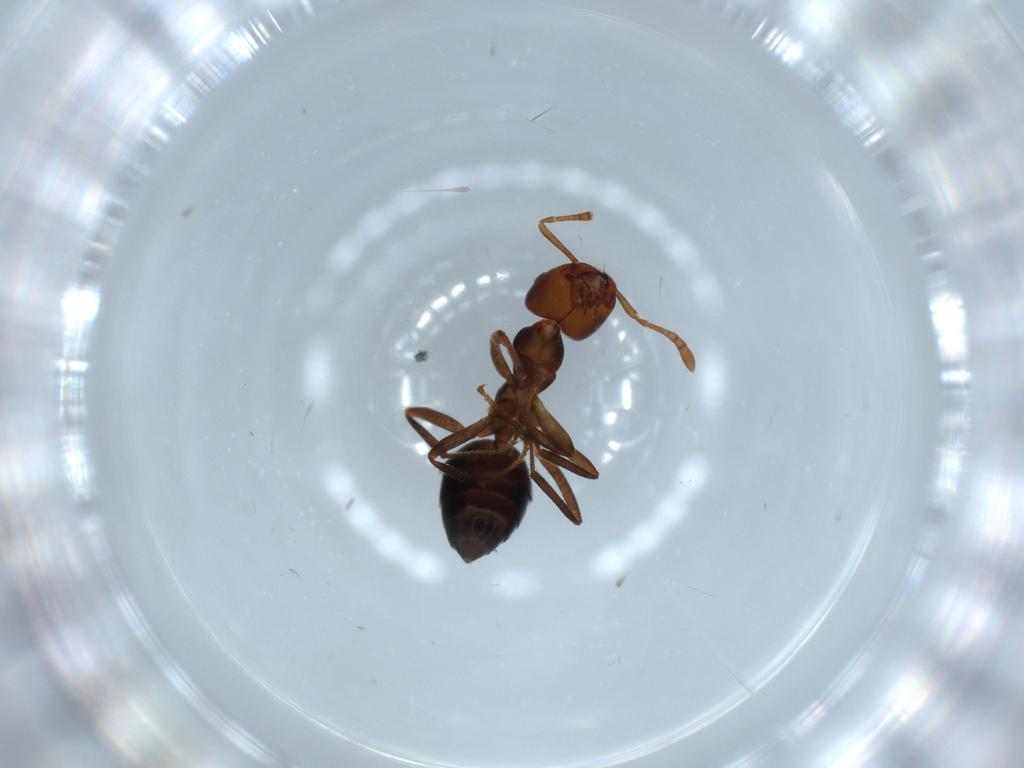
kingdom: Animalia
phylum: Arthropoda
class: Insecta
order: Hymenoptera
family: Formicidae
